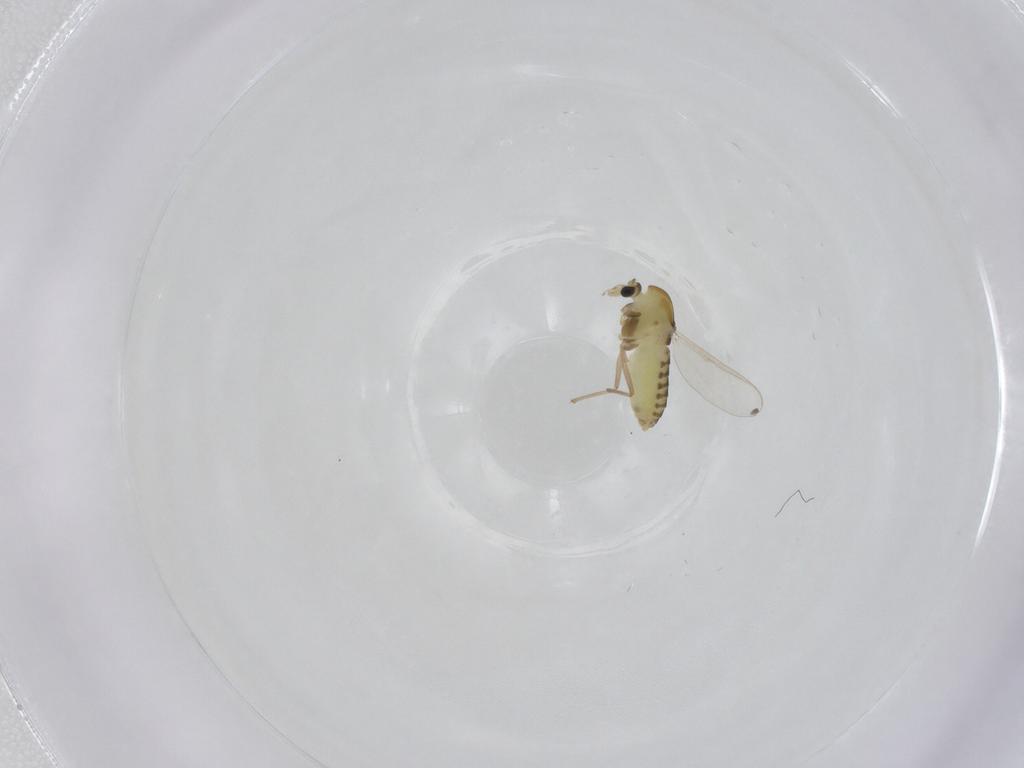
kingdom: Animalia
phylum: Arthropoda
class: Insecta
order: Diptera
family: Chironomidae
